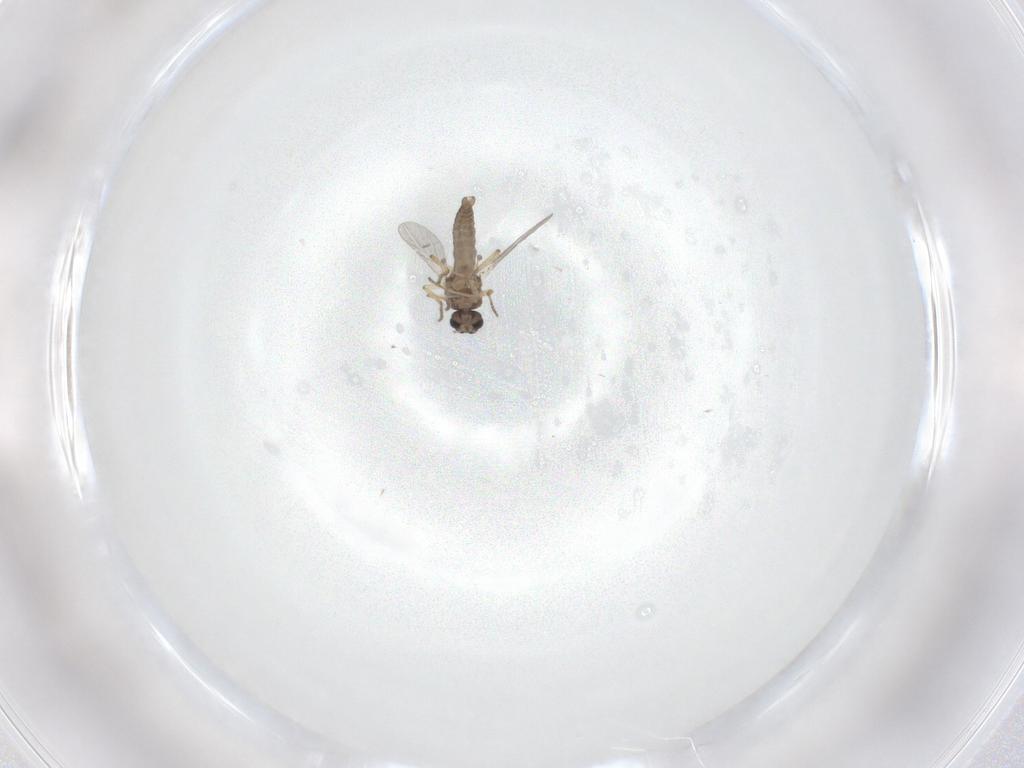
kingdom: Animalia
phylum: Arthropoda
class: Insecta
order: Diptera
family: Ceratopogonidae
